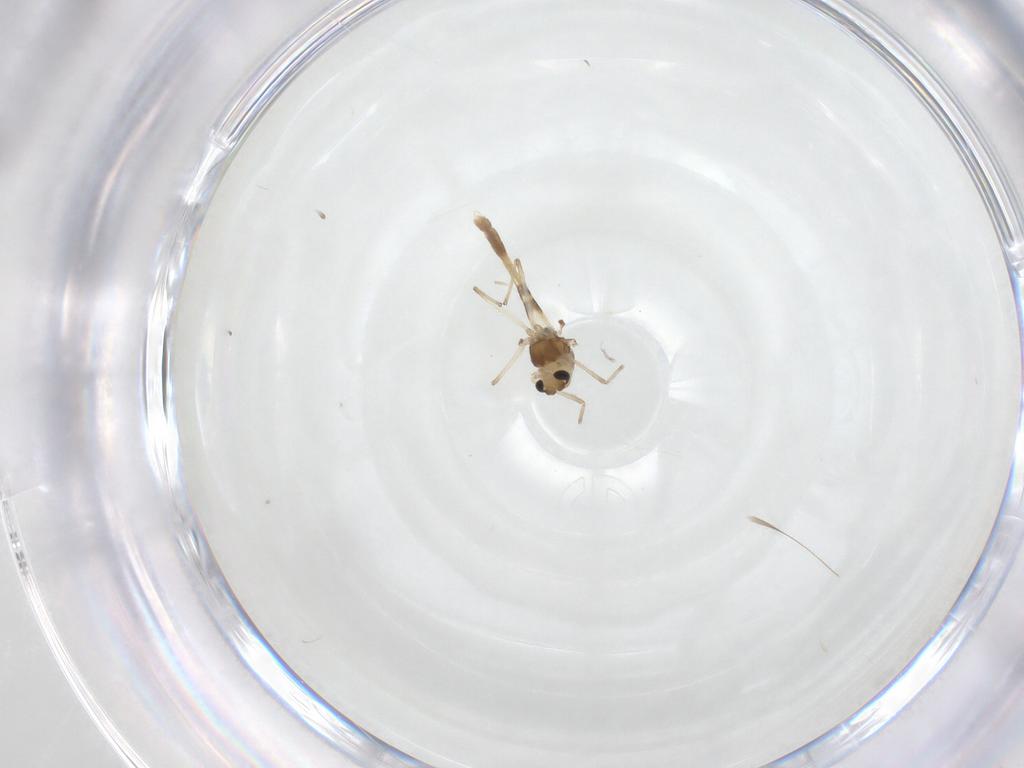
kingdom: Animalia
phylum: Arthropoda
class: Insecta
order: Diptera
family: Chironomidae
